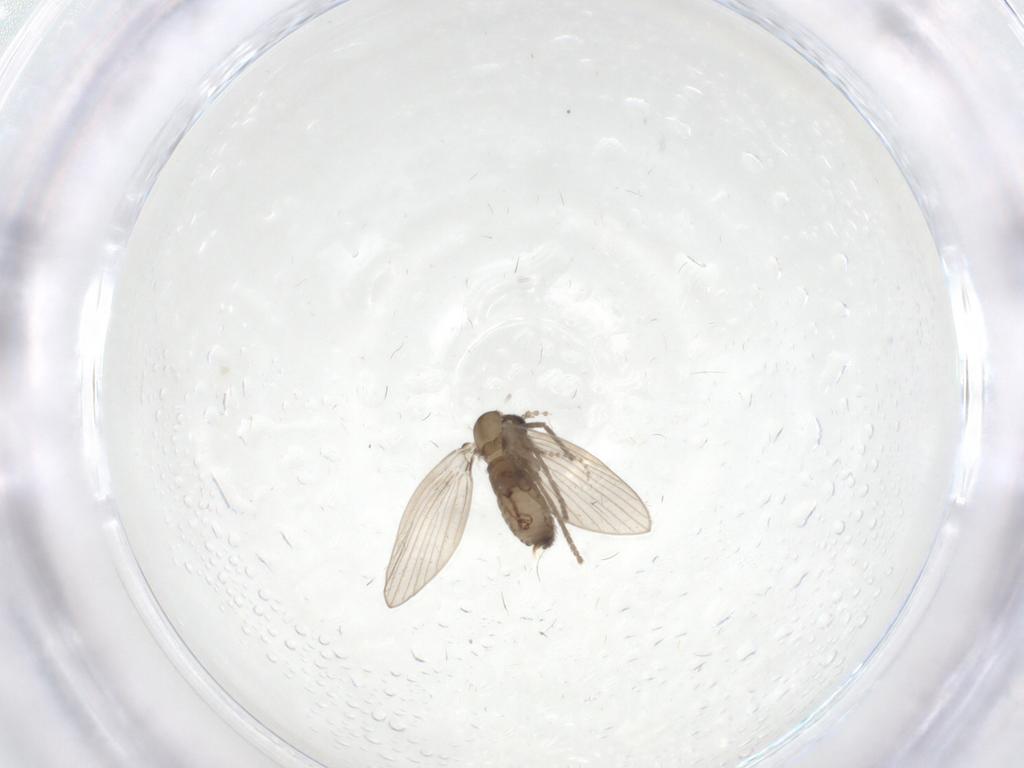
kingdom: Animalia
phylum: Arthropoda
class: Insecta
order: Diptera
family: Psychodidae
